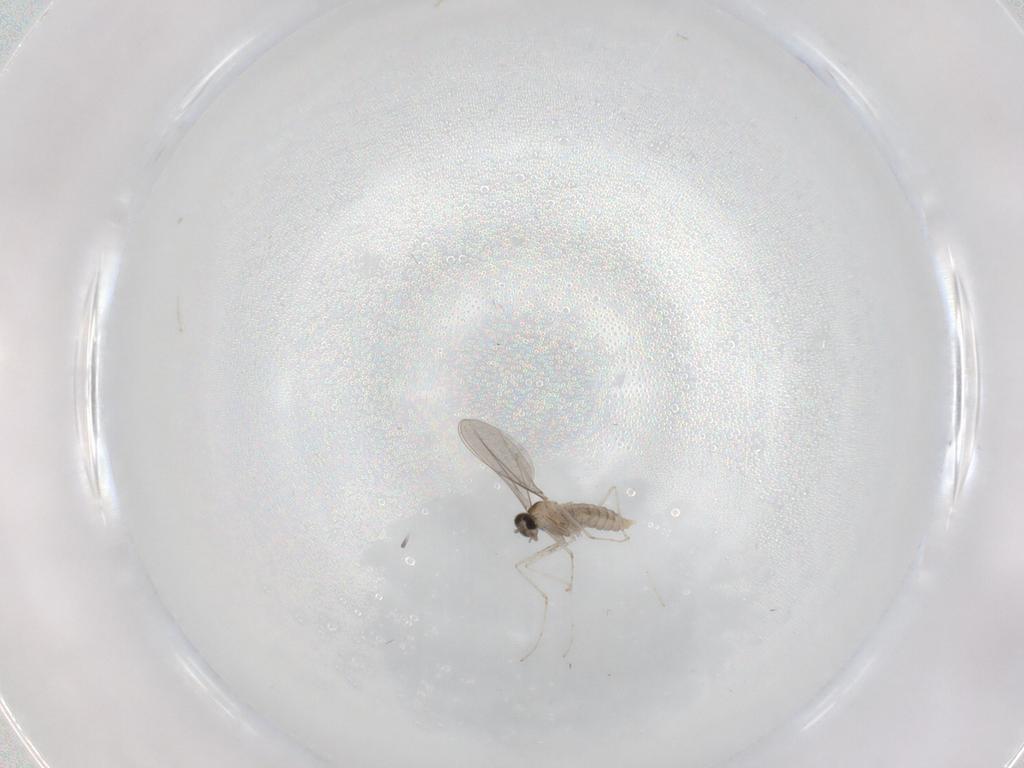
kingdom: Animalia
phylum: Arthropoda
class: Insecta
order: Diptera
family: Cecidomyiidae
